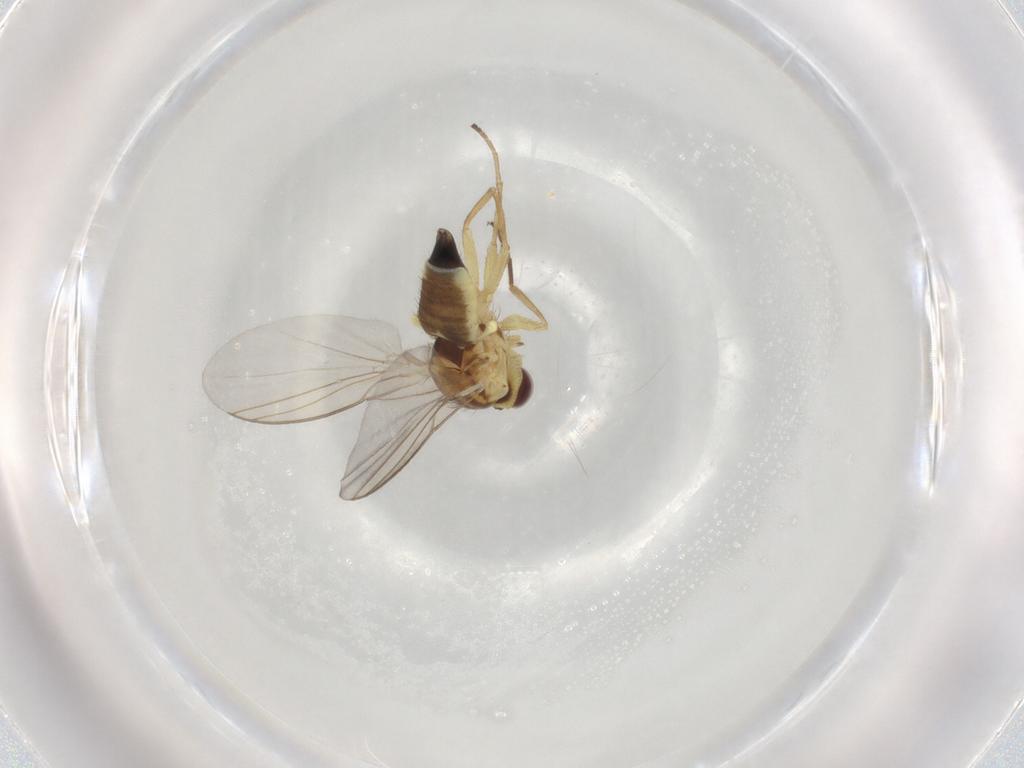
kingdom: Animalia
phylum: Arthropoda
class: Insecta
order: Diptera
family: Agromyzidae
